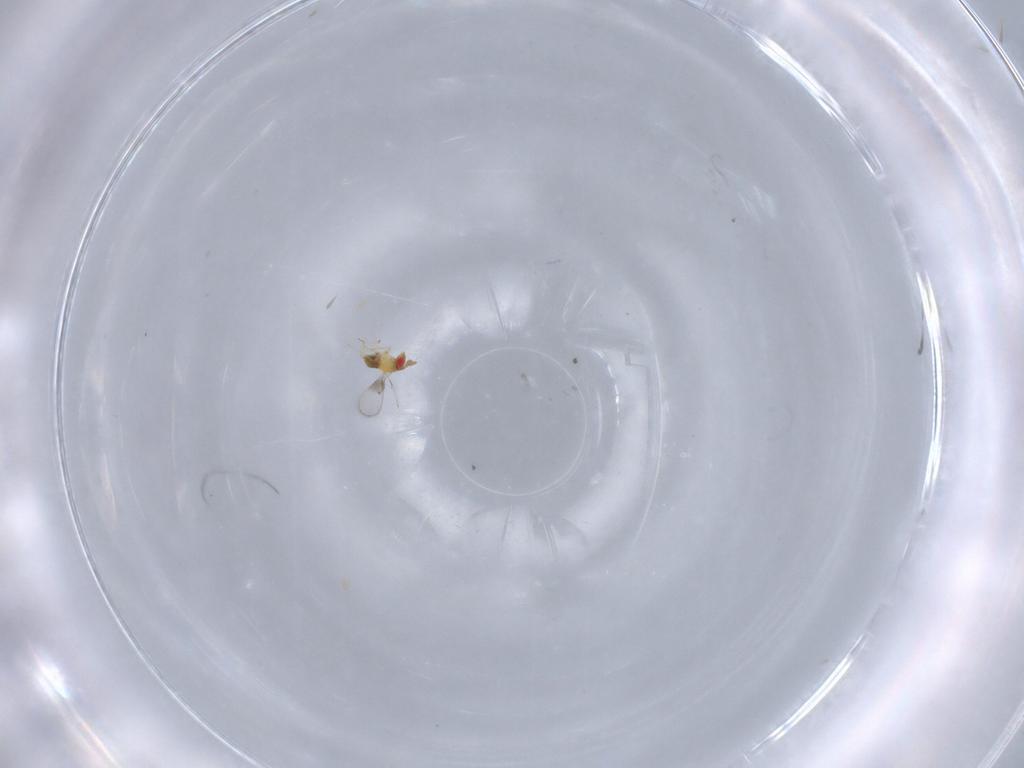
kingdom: Animalia
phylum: Arthropoda
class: Insecta
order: Hymenoptera
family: Trichogrammatidae
